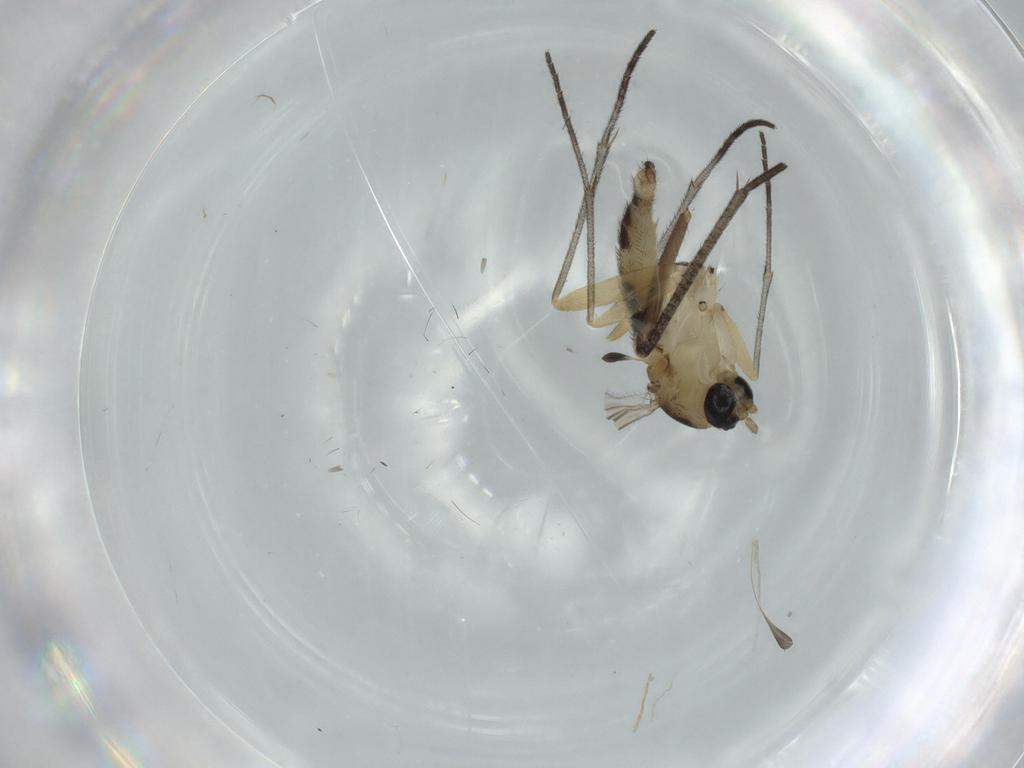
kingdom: Animalia
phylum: Arthropoda
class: Insecta
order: Diptera
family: Sciaridae
